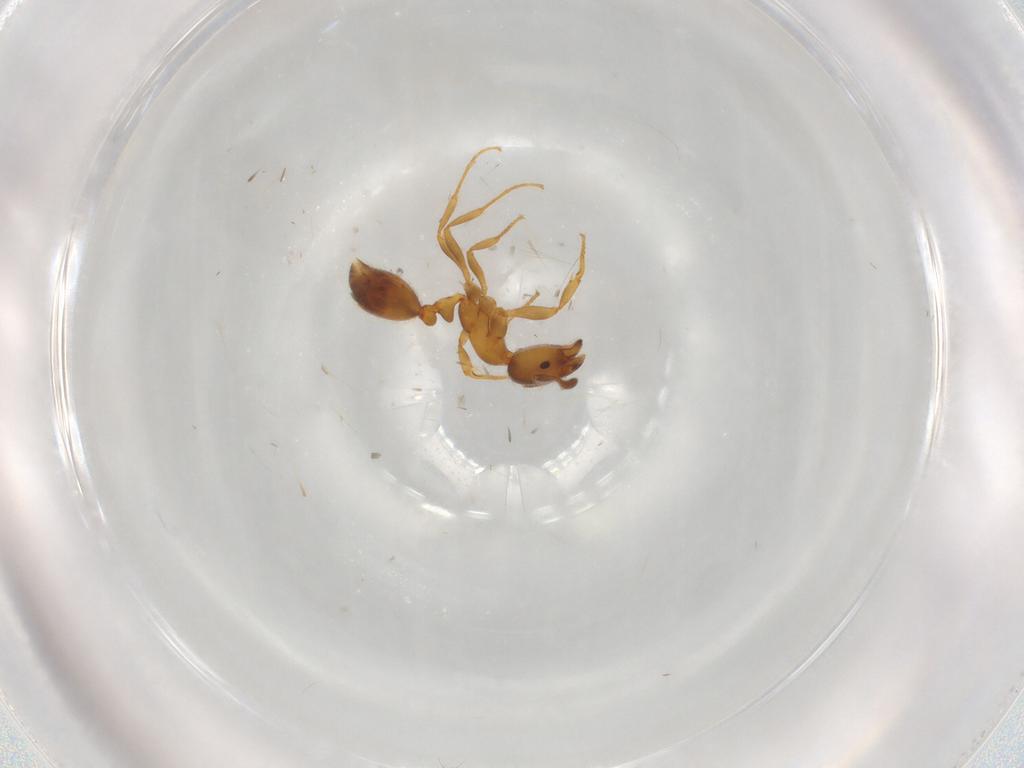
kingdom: Animalia
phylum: Arthropoda
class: Insecta
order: Hymenoptera
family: Formicidae
